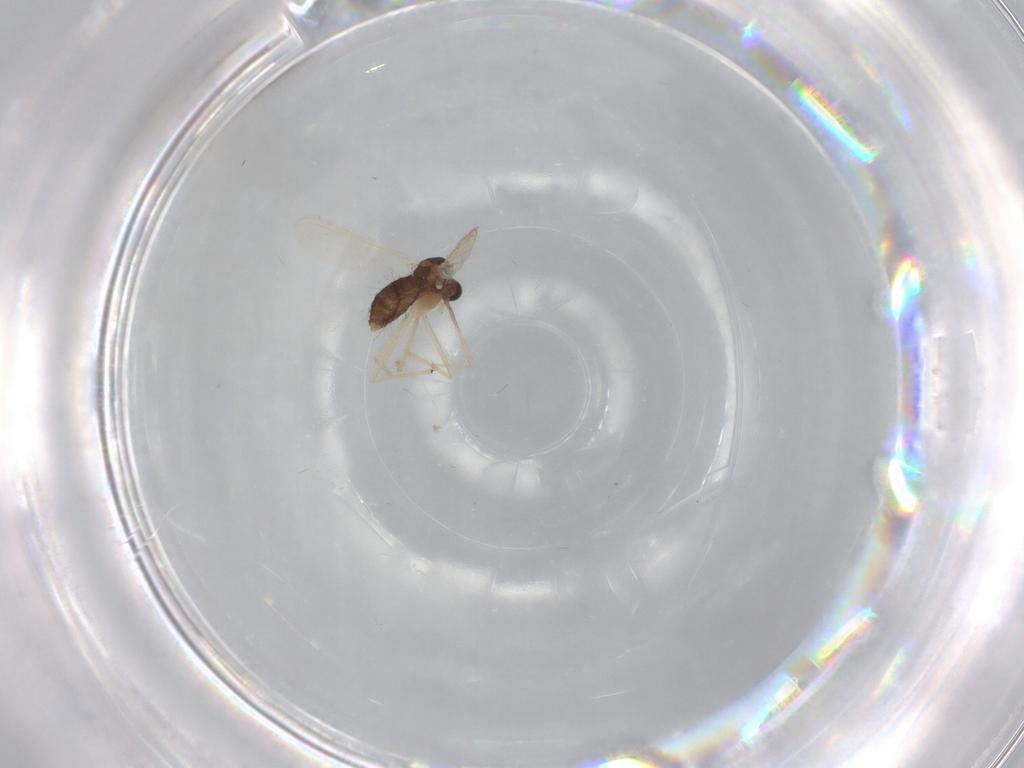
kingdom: Animalia
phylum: Arthropoda
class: Insecta
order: Diptera
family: Chironomidae
